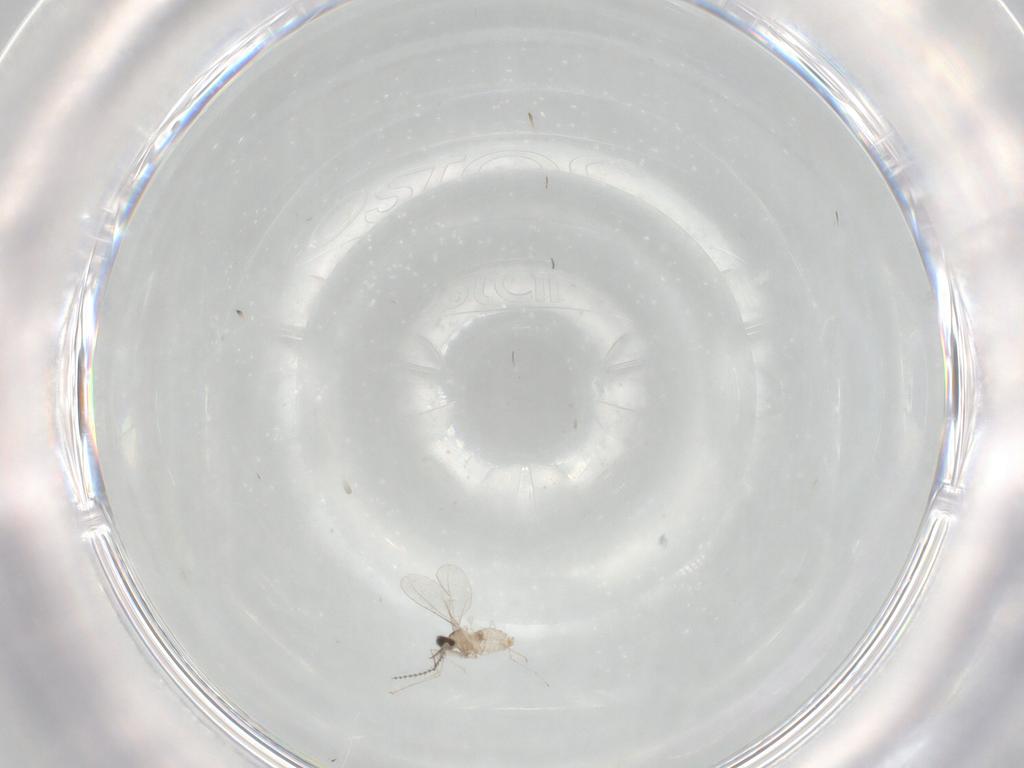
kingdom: Animalia
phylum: Arthropoda
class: Insecta
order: Diptera
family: Cecidomyiidae
